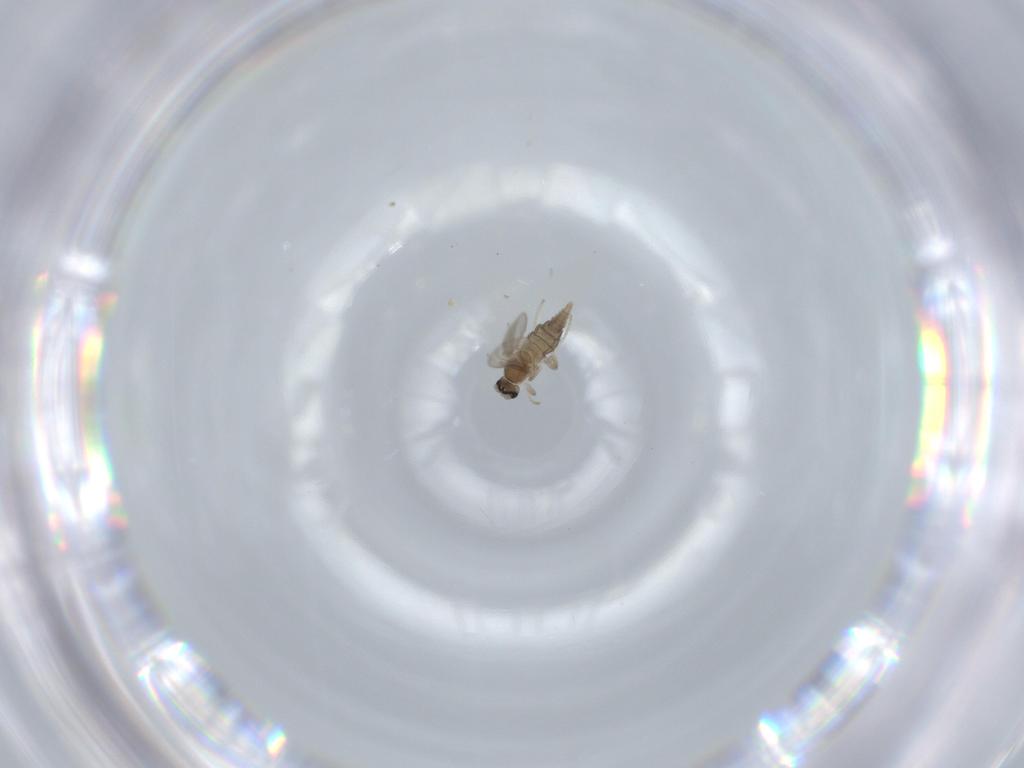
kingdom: Animalia
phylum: Arthropoda
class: Insecta
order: Diptera
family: Cecidomyiidae
